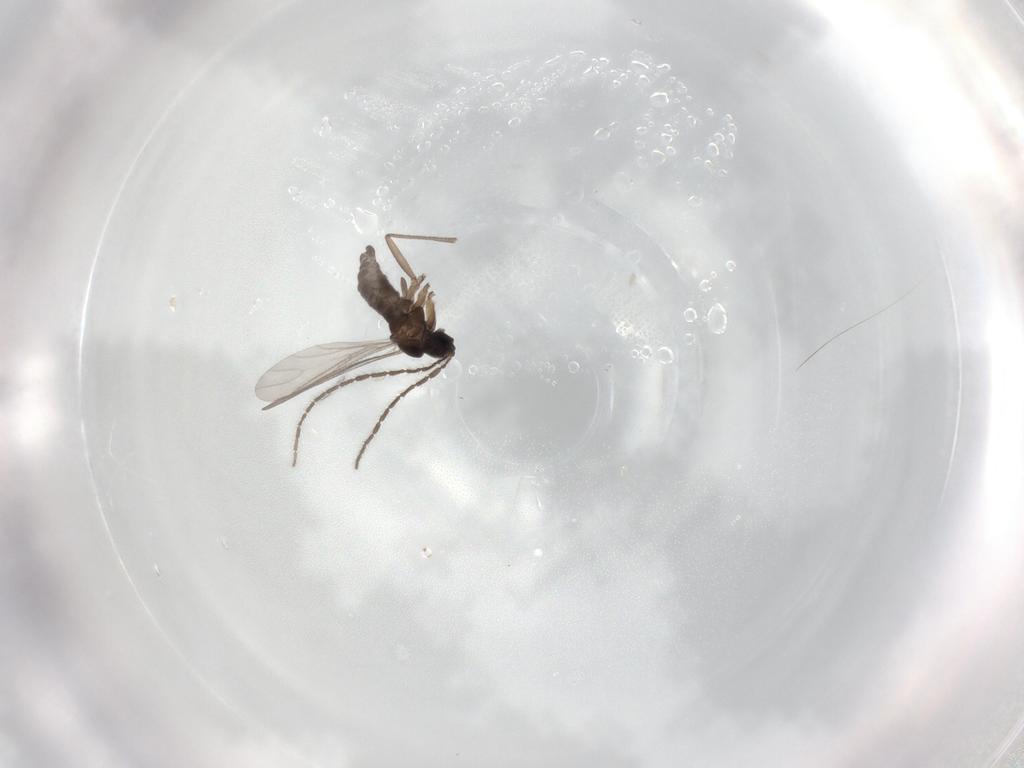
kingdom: Animalia
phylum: Arthropoda
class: Insecta
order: Diptera
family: Sciaridae
